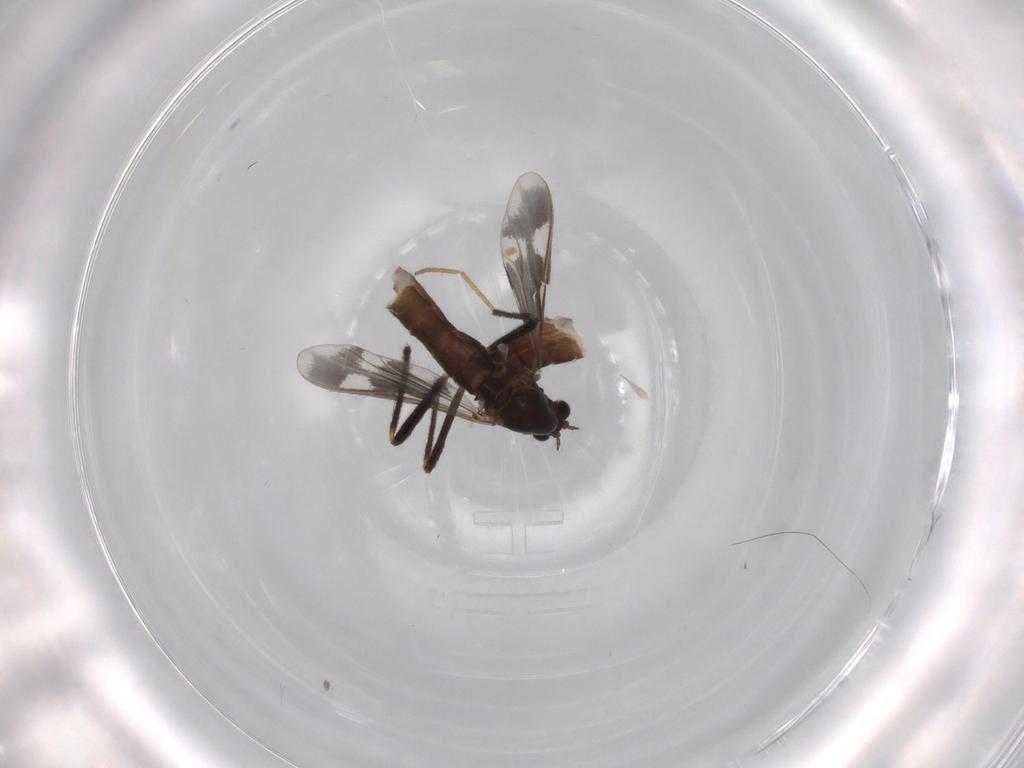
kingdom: Animalia
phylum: Arthropoda
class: Insecta
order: Diptera
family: Chironomidae
